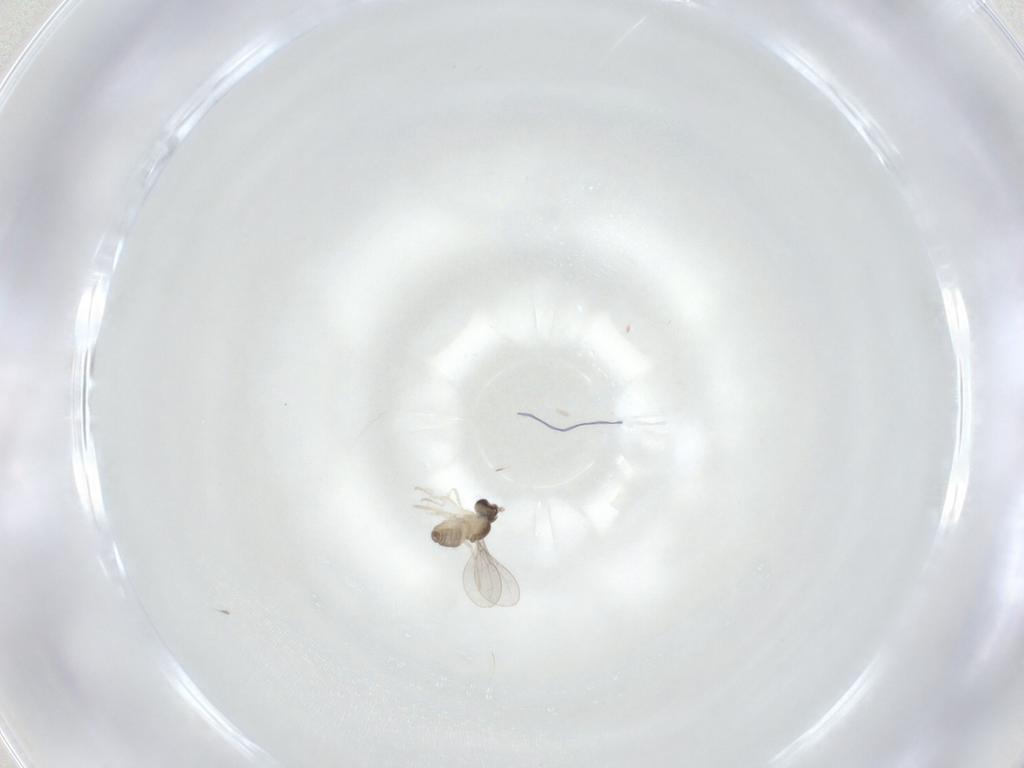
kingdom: Animalia
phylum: Arthropoda
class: Insecta
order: Diptera
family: Cecidomyiidae
